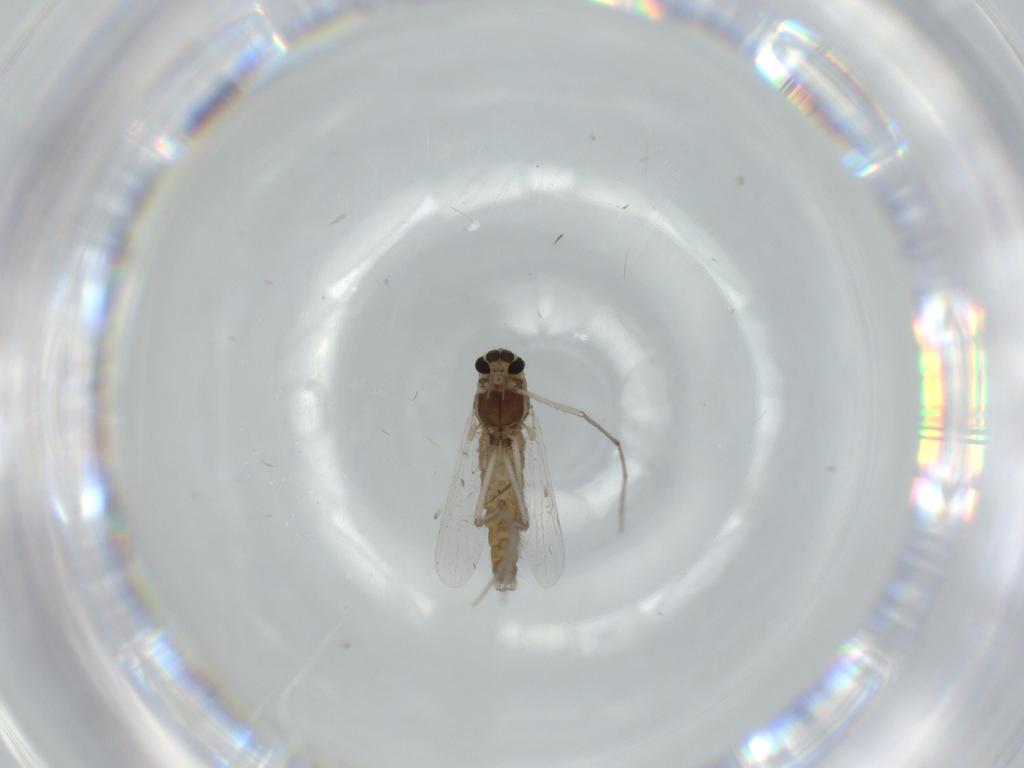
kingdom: Animalia
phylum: Arthropoda
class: Insecta
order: Diptera
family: Chironomidae
